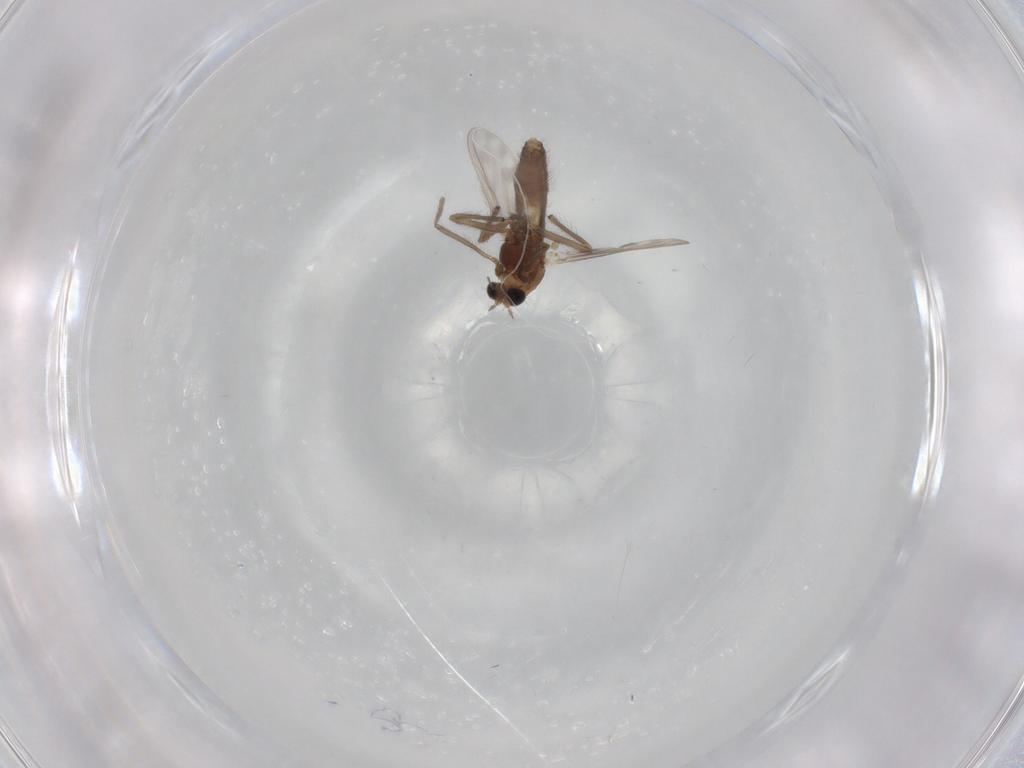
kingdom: Animalia
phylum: Arthropoda
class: Insecta
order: Diptera
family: Chironomidae
